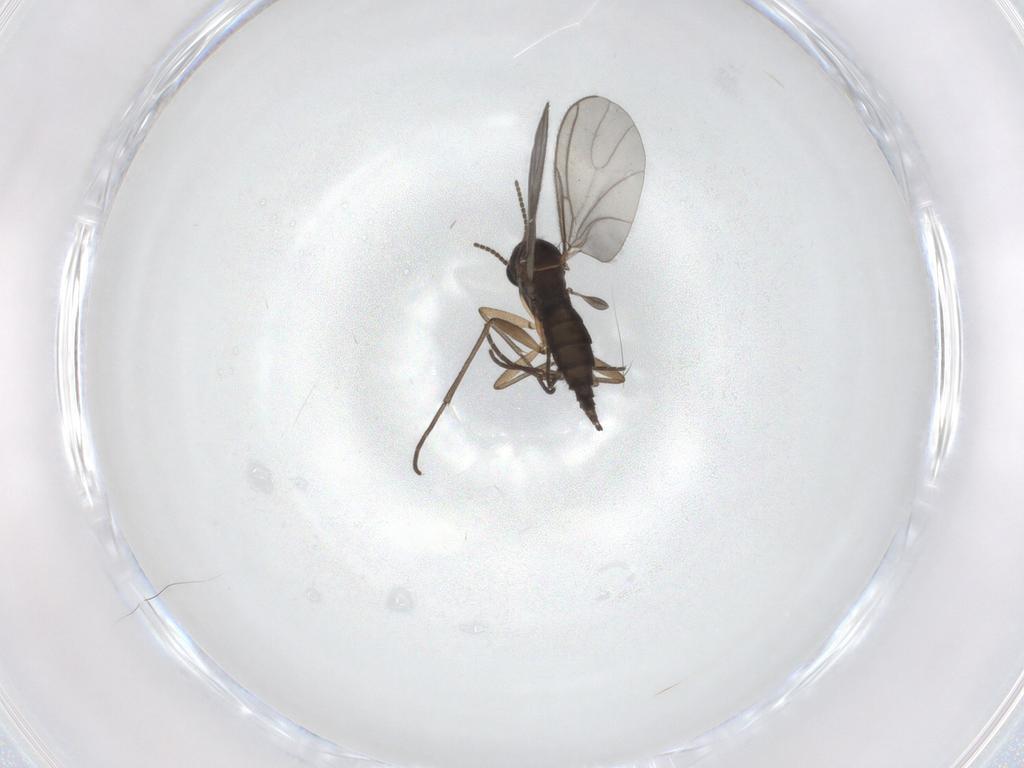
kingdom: Animalia
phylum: Arthropoda
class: Insecta
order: Diptera
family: Sciaridae
